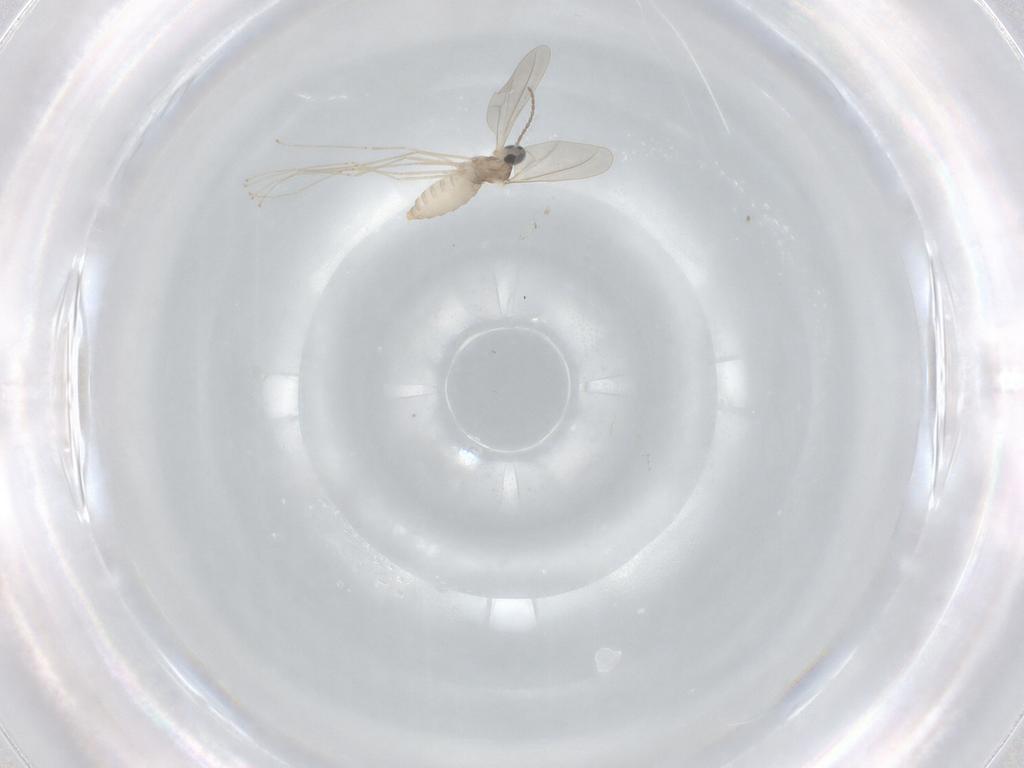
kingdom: Animalia
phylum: Arthropoda
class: Insecta
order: Diptera
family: Cecidomyiidae
